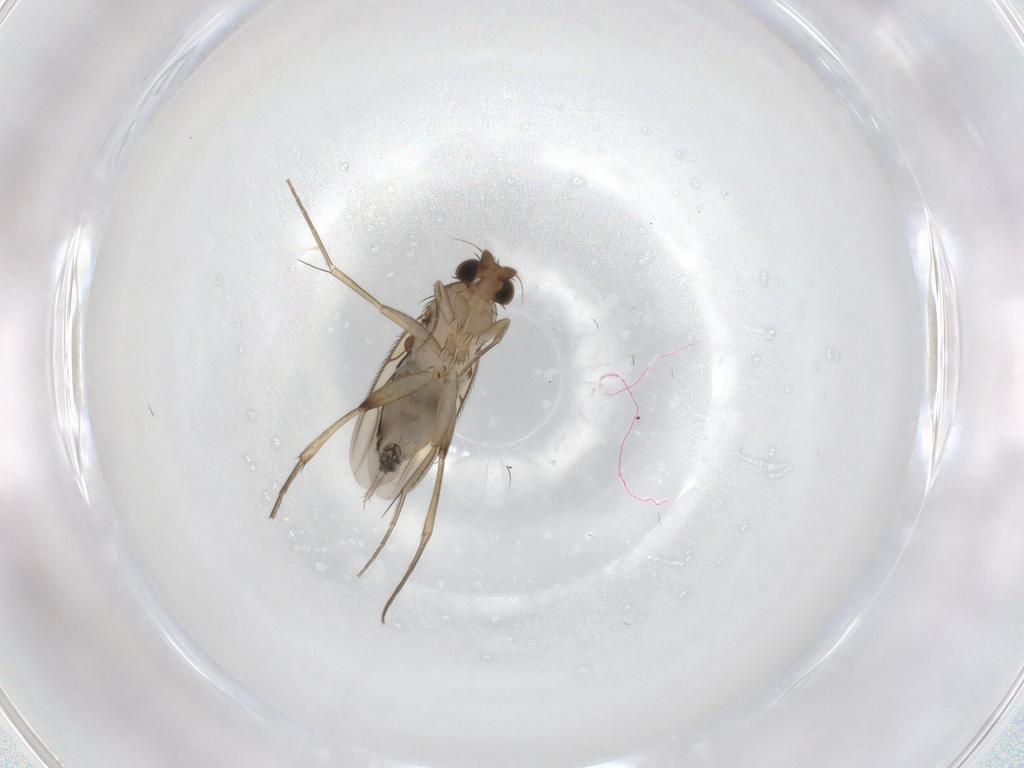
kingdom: Animalia
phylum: Arthropoda
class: Insecta
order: Diptera
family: Phoridae
